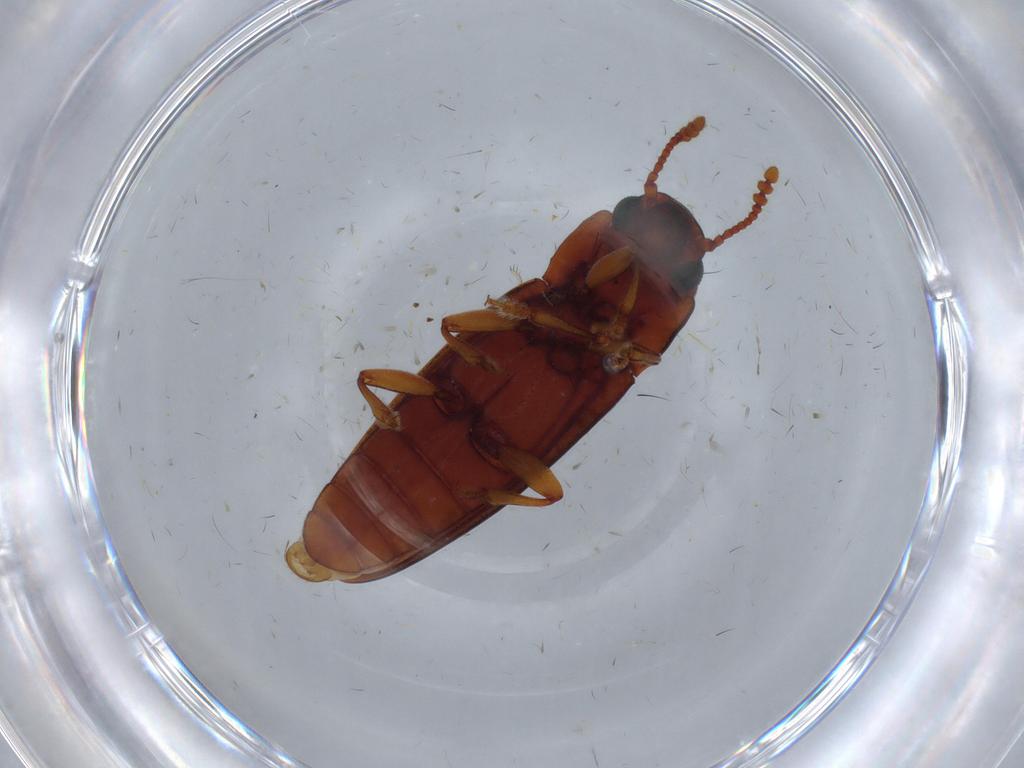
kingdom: Animalia
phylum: Arthropoda
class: Insecta
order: Coleoptera
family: Erotylidae
